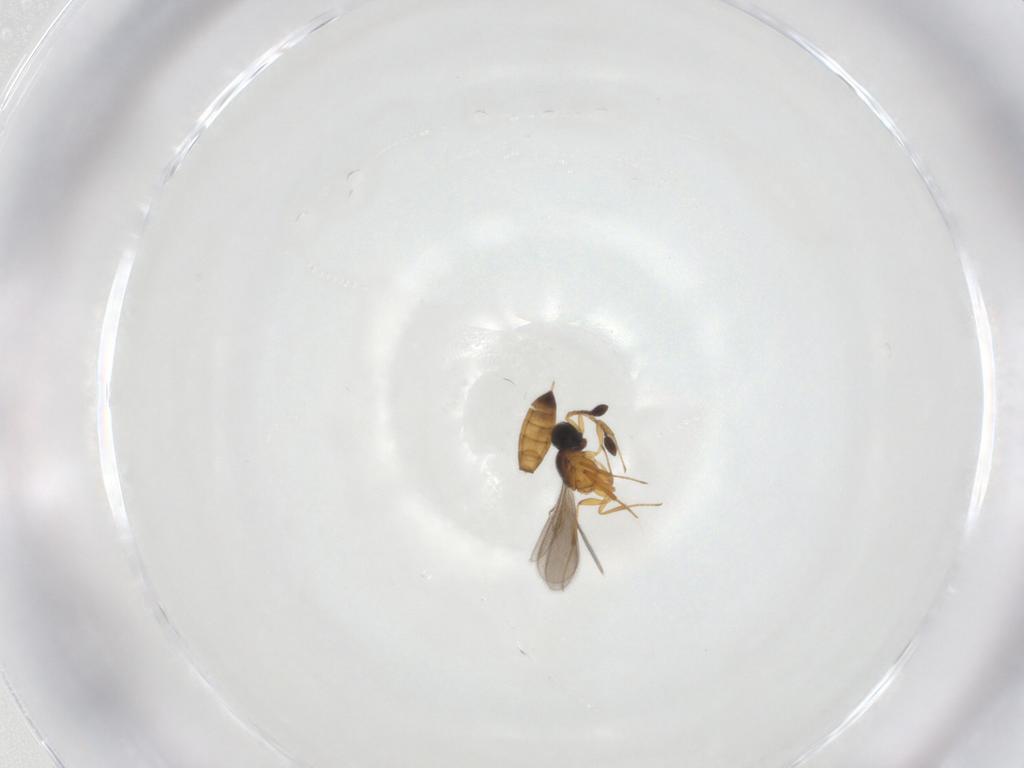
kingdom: Animalia
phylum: Arthropoda
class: Insecta
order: Hymenoptera
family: Scelionidae
